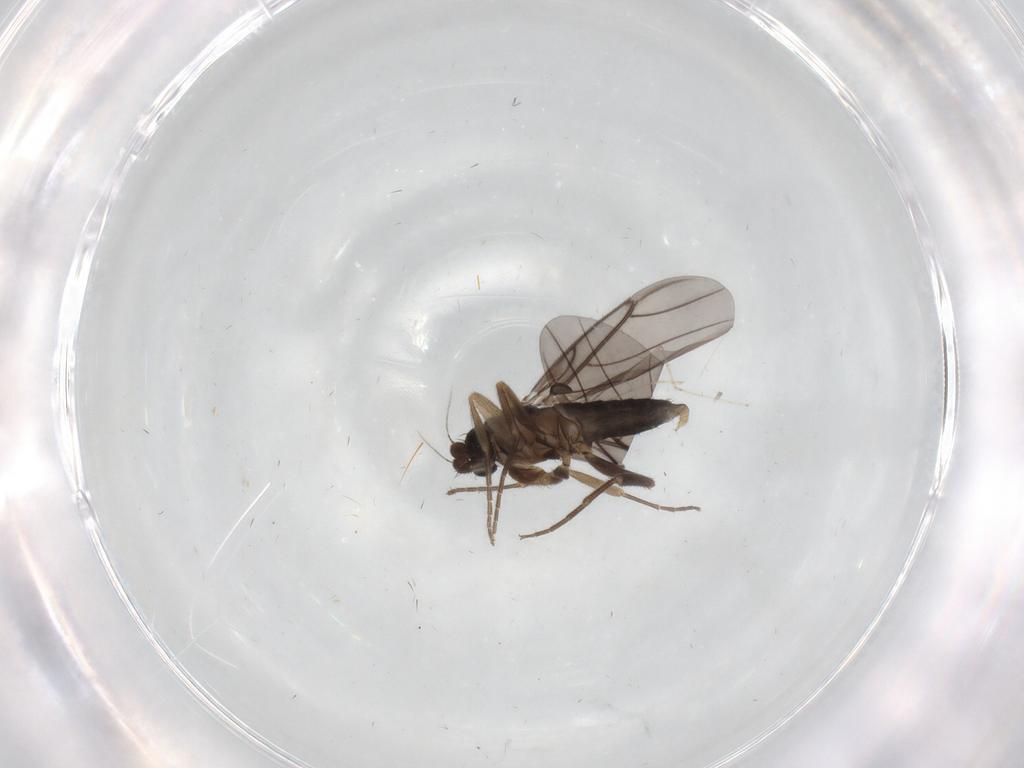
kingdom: Animalia
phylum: Arthropoda
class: Insecta
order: Diptera
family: Cecidomyiidae
